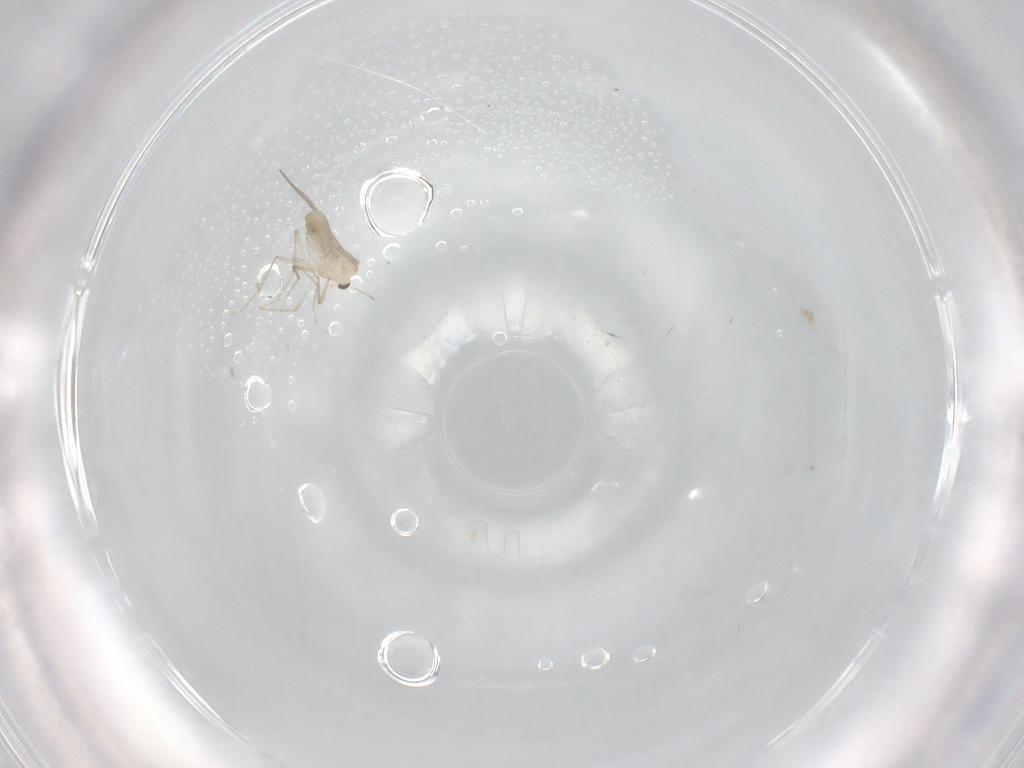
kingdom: Animalia
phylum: Arthropoda
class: Insecta
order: Diptera
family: Chironomidae
